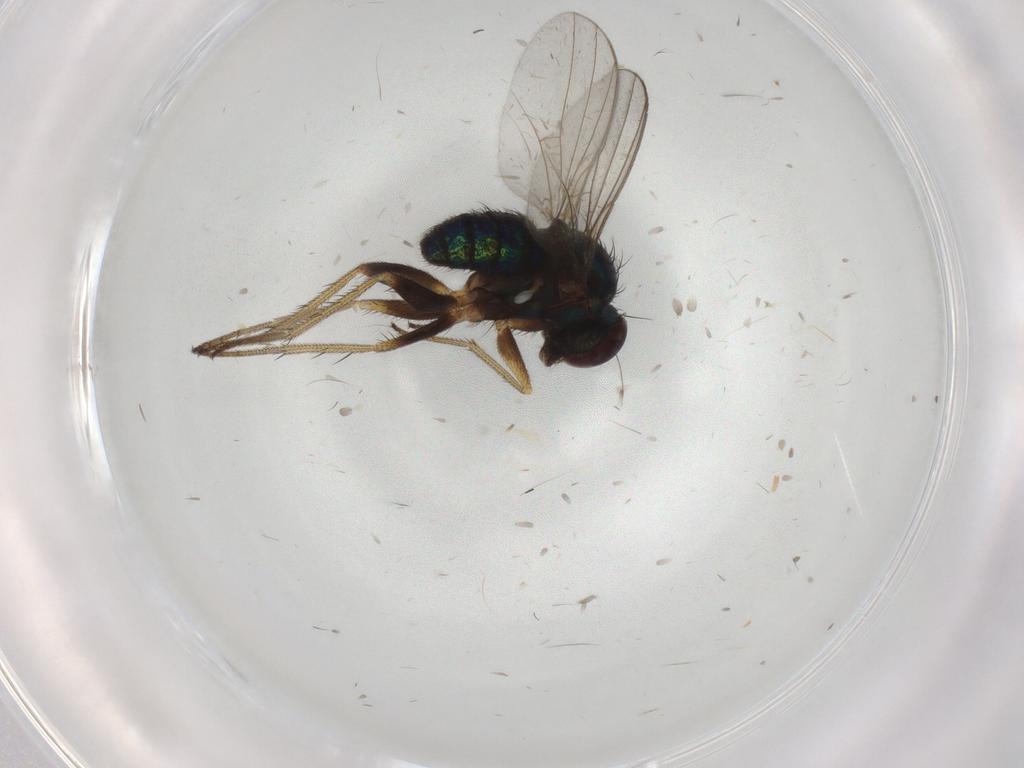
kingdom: Animalia
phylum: Arthropoda
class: Insecta
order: Diptera
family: Dolichopodidae
